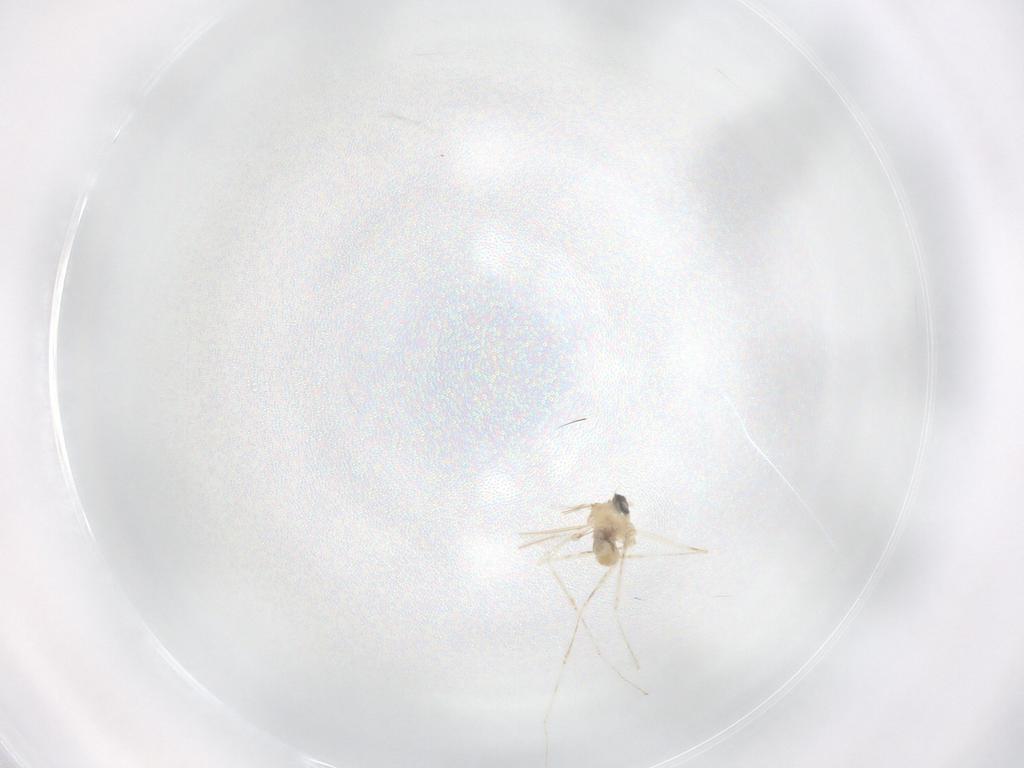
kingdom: Animalia
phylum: Arthropoda
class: Insecta
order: Diptera
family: Cecidomyiidae
